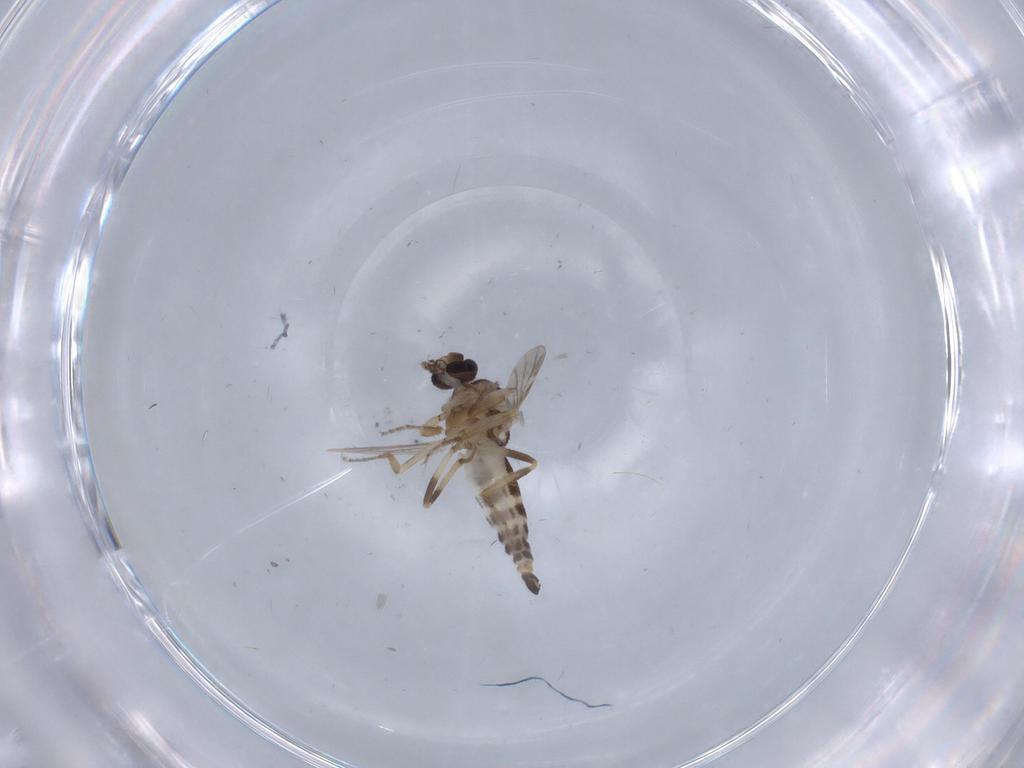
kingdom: Animalia
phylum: Arthropoda
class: Insecta
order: Diptera
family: Ceratopogonidae
